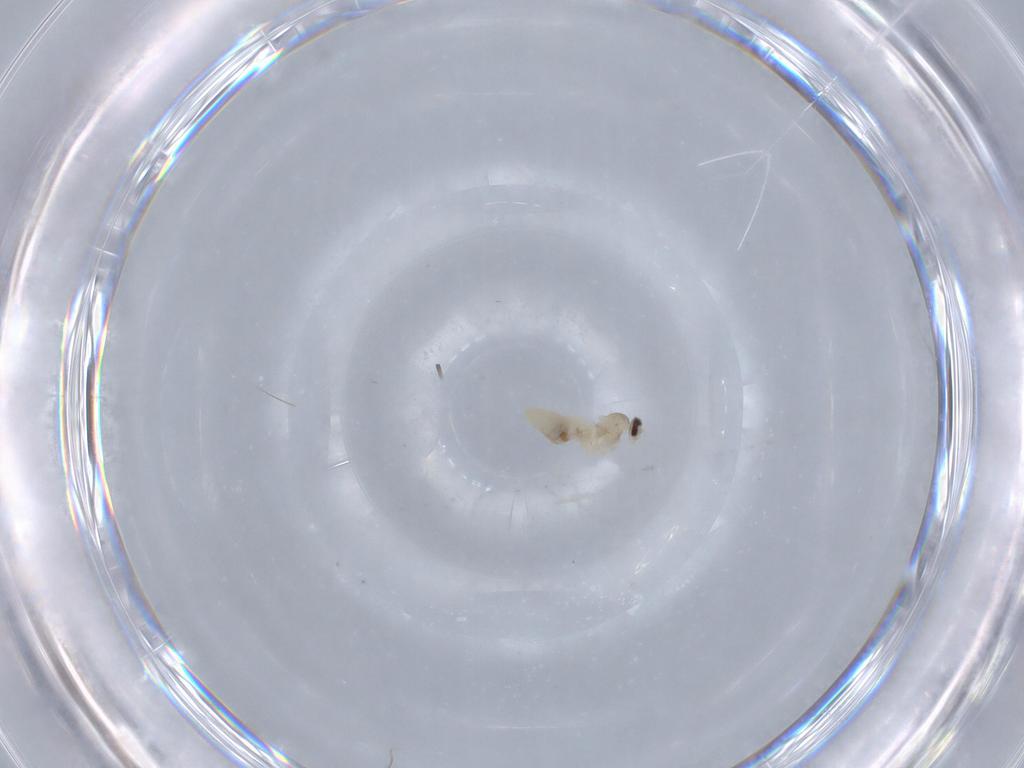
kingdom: Animalia
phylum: Arthropoda
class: Insecta
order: Diptera
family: Cecidomyiidae
